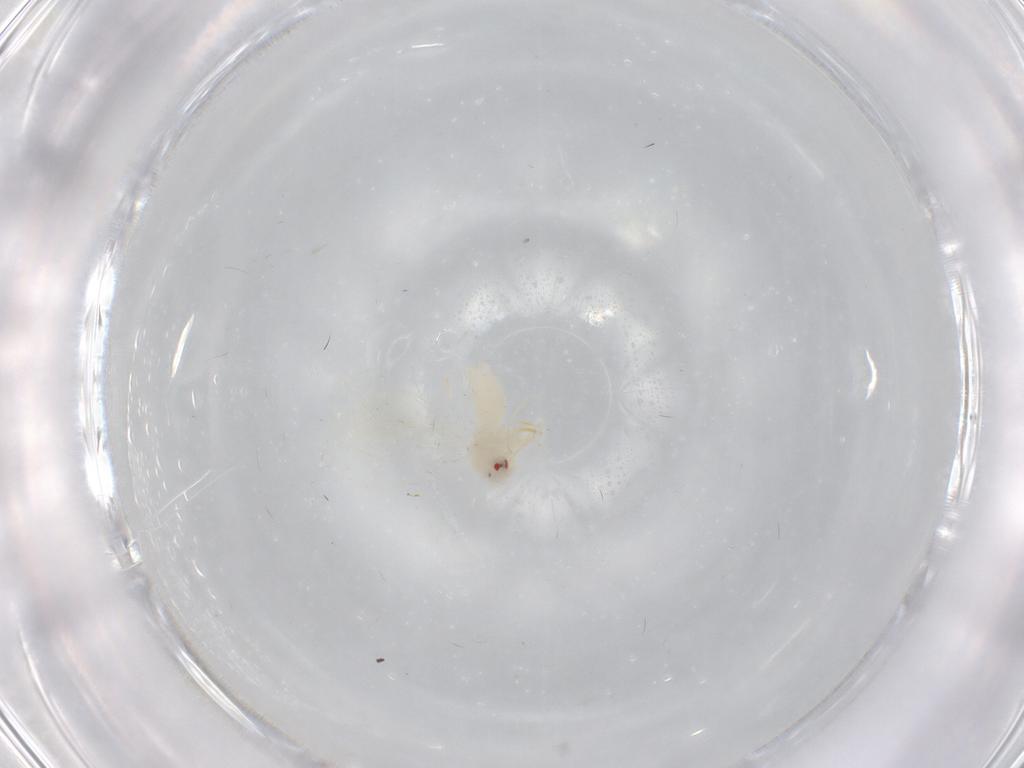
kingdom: Animalia
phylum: Arthropoda
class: Insecta
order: Hemiptera
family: Aleyrodidae
